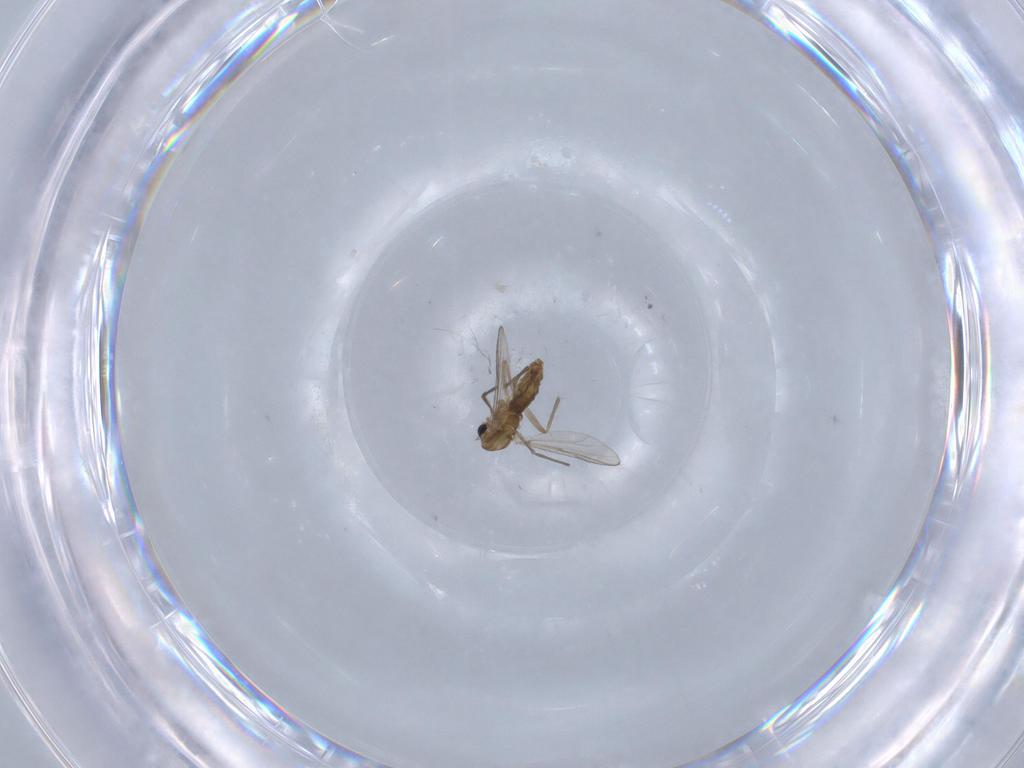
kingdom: Animalia
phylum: Arthropoda
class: Insecta
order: Diptera
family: Chironomidae
